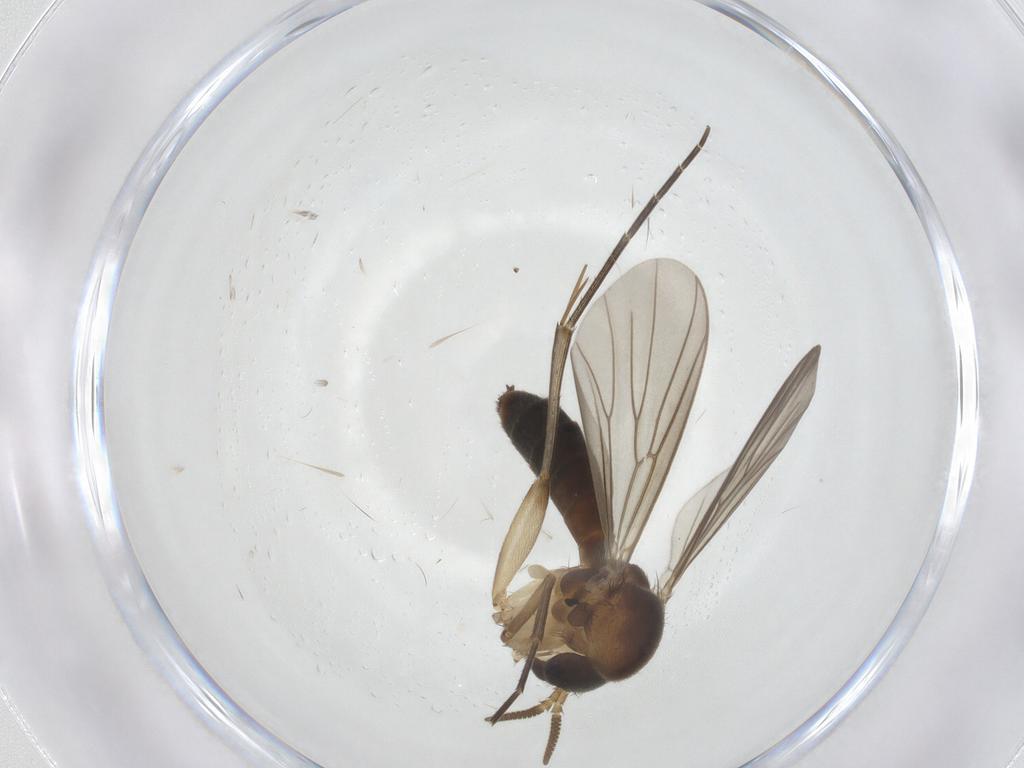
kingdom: Animalia
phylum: Arthropoda
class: Insecta
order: Diptera
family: Mycetophilidae
